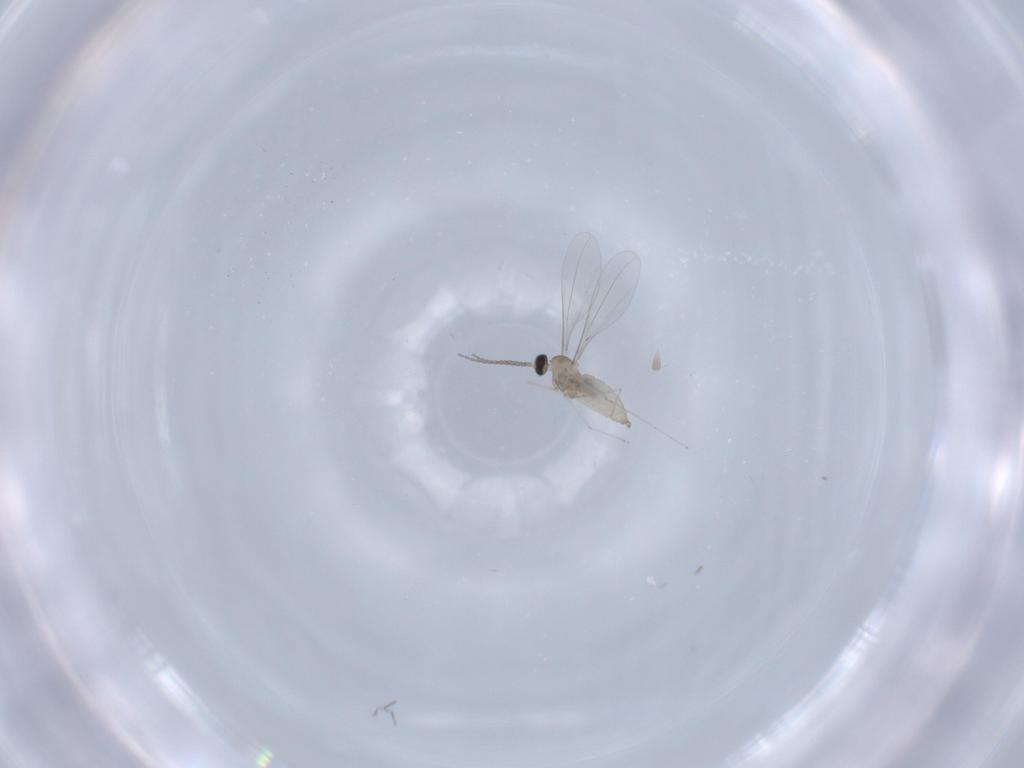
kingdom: Animalia
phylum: Arthropoda
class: Insecta
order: Diptera
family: Cecidomyiidae
